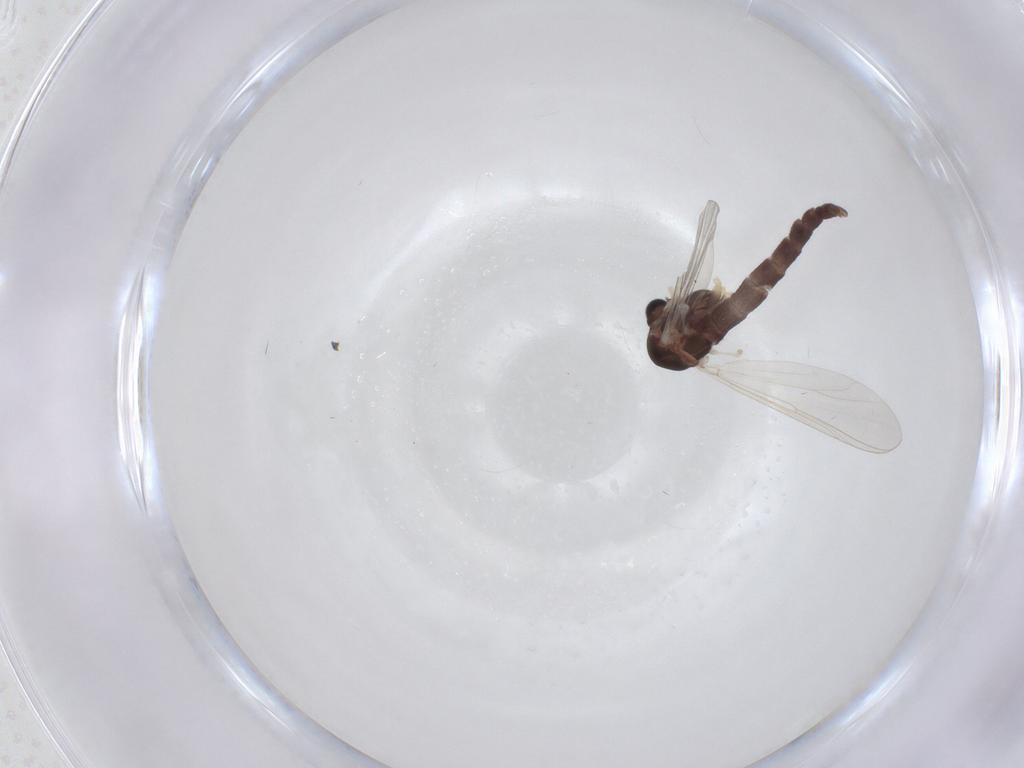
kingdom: Animalia
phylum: Arthropoda
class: Insecta
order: Diptera
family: Chironomidae
